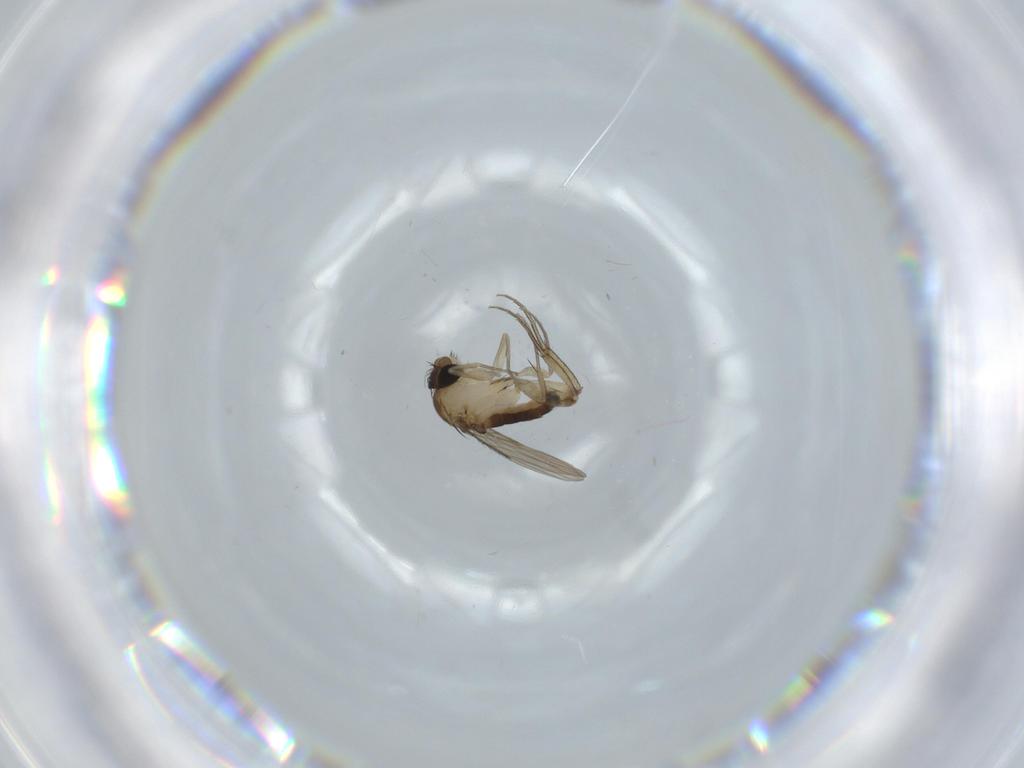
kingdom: Animalia
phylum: Arthropoda
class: Insecta
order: Diptera
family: Phoridae
